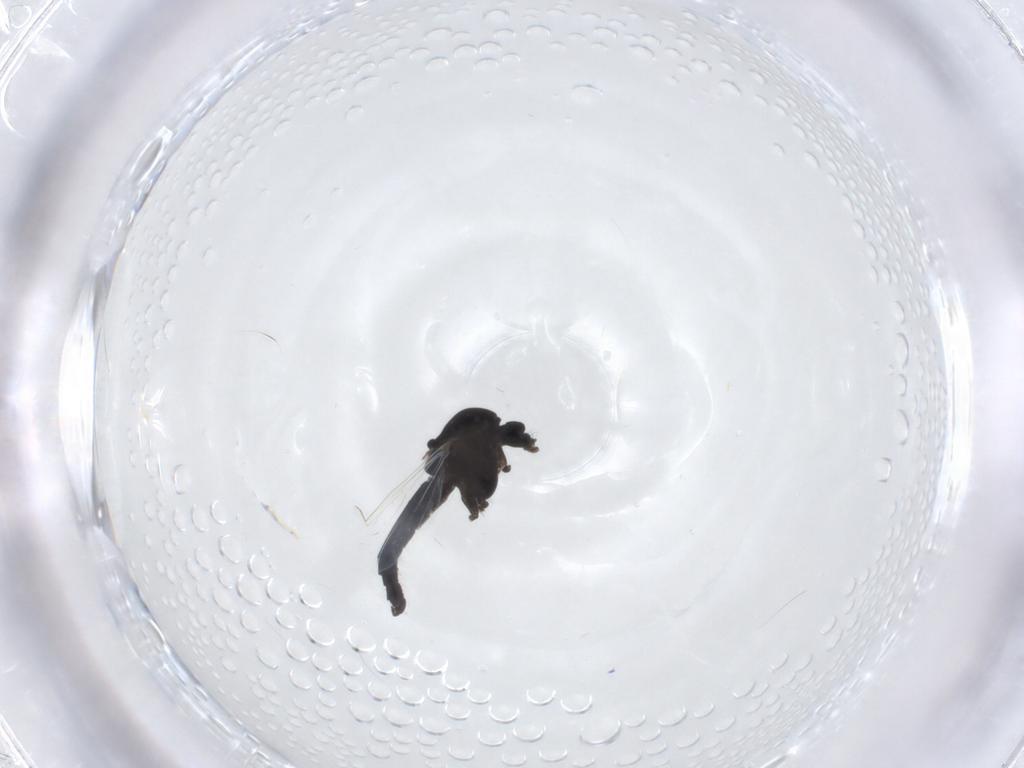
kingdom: Animalia
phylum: Arthropoda
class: Insecta
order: Diptera
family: Chironomidae
